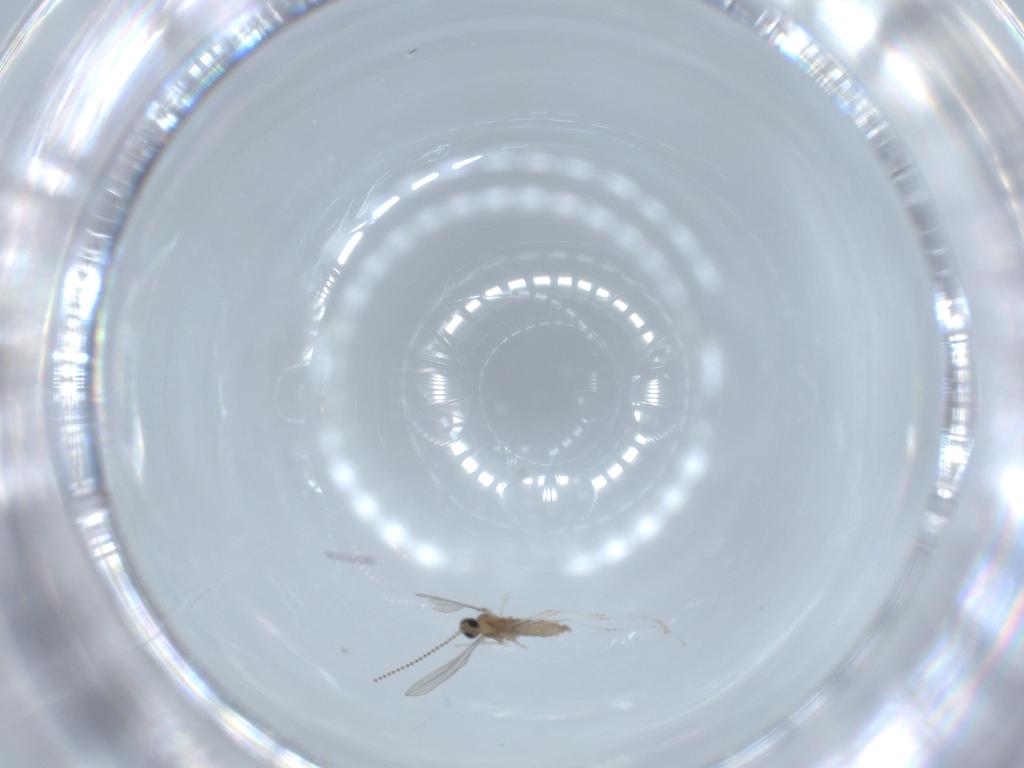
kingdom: Animalia
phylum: Arthropoda
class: Insecta
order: Diptera
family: Cecidomyiidae
